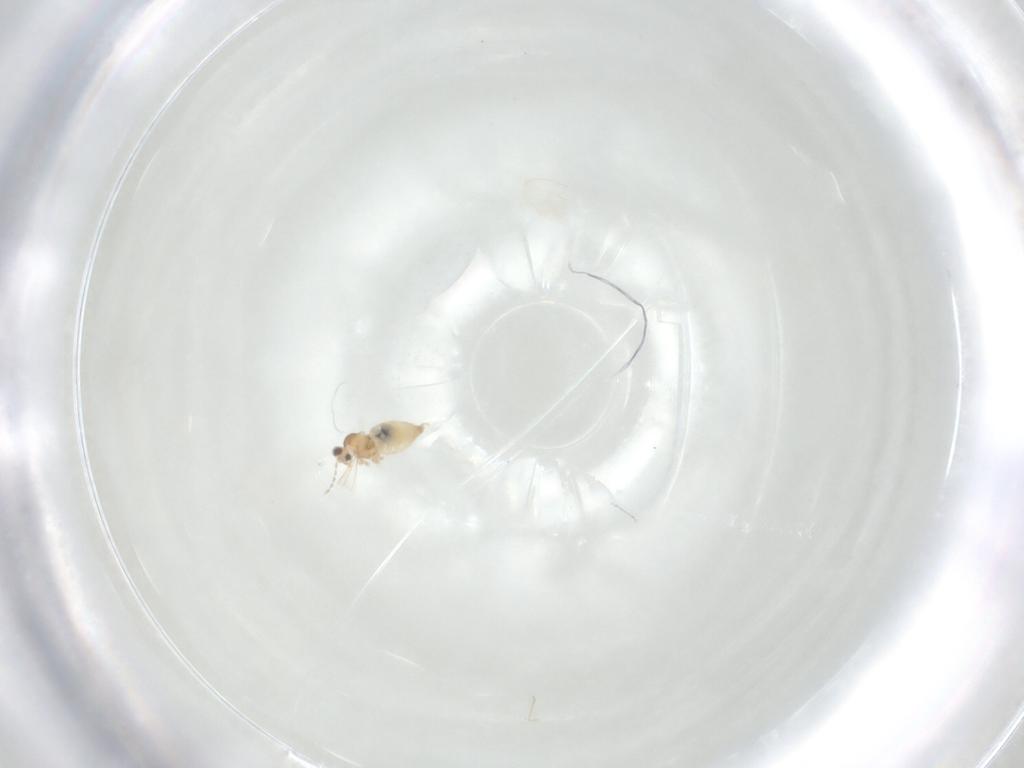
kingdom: Animalia
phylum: Arthropoda
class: Insecta
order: Diptera
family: Cecidomyiidae
